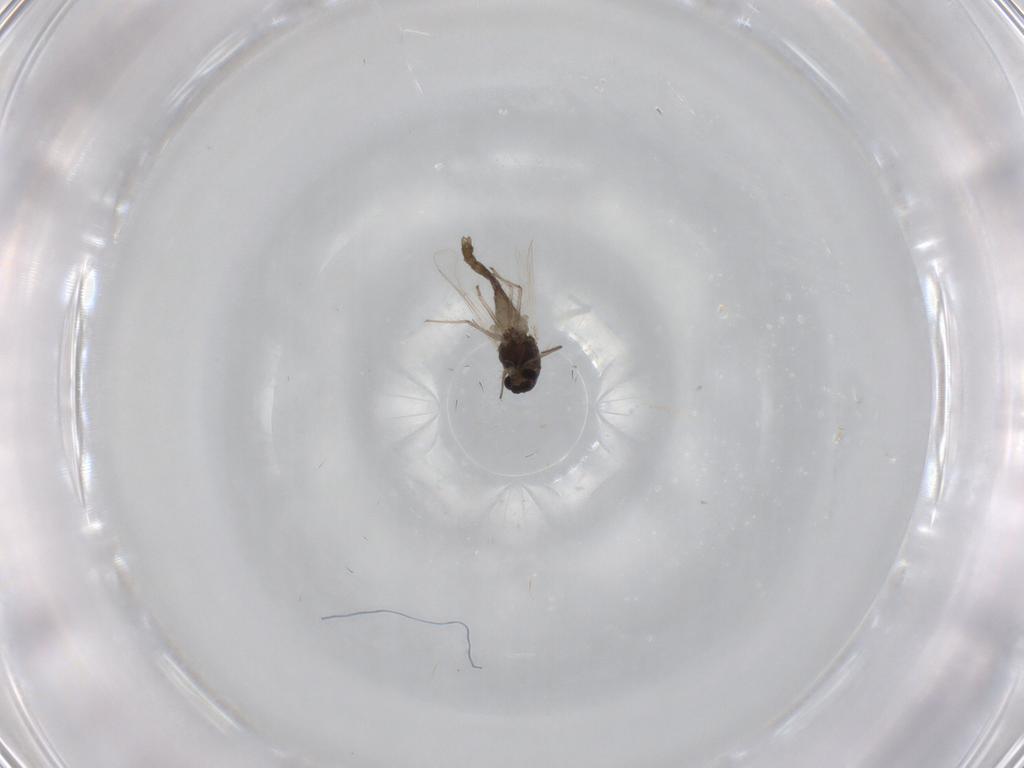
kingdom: Animalia
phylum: Arthropoda
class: Insecta
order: Diptera
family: Chironomidae
